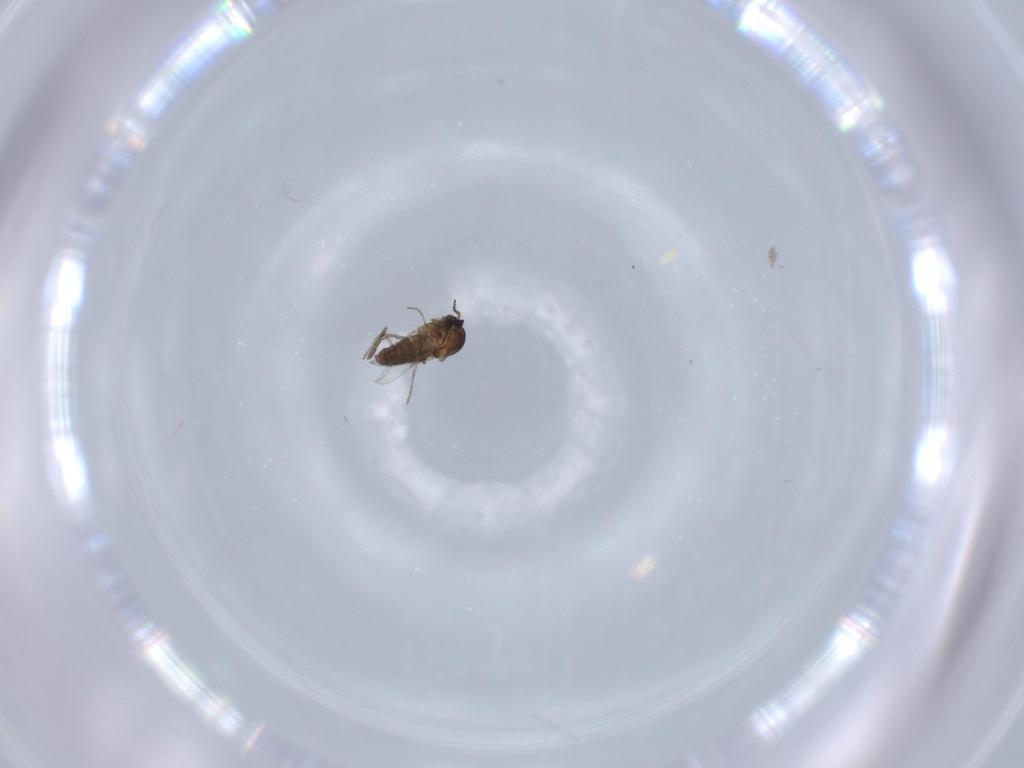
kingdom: Animalia
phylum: Arthropoda
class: Insecta
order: Diptera
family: Ceratopogonidae
